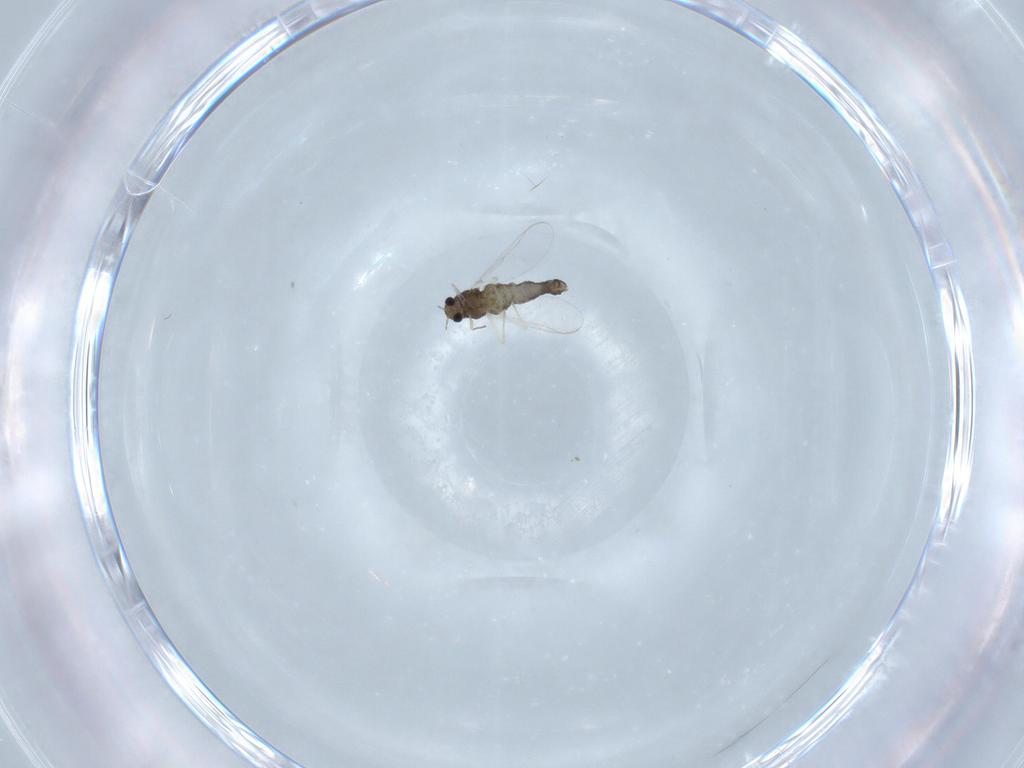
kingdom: Animalia
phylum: Arthropoda
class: Insecta
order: Diptera
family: Chironomidae
